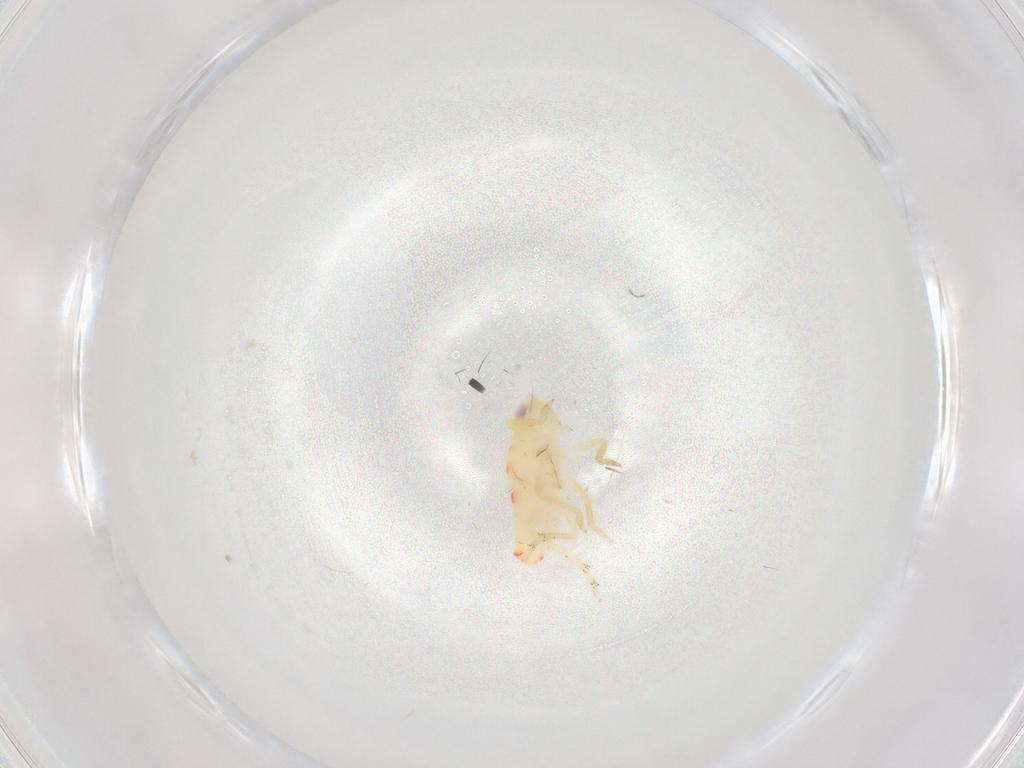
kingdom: Animalia
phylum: Arthropoda
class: Insecta
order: Hemiptera
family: Tropiduchidae
